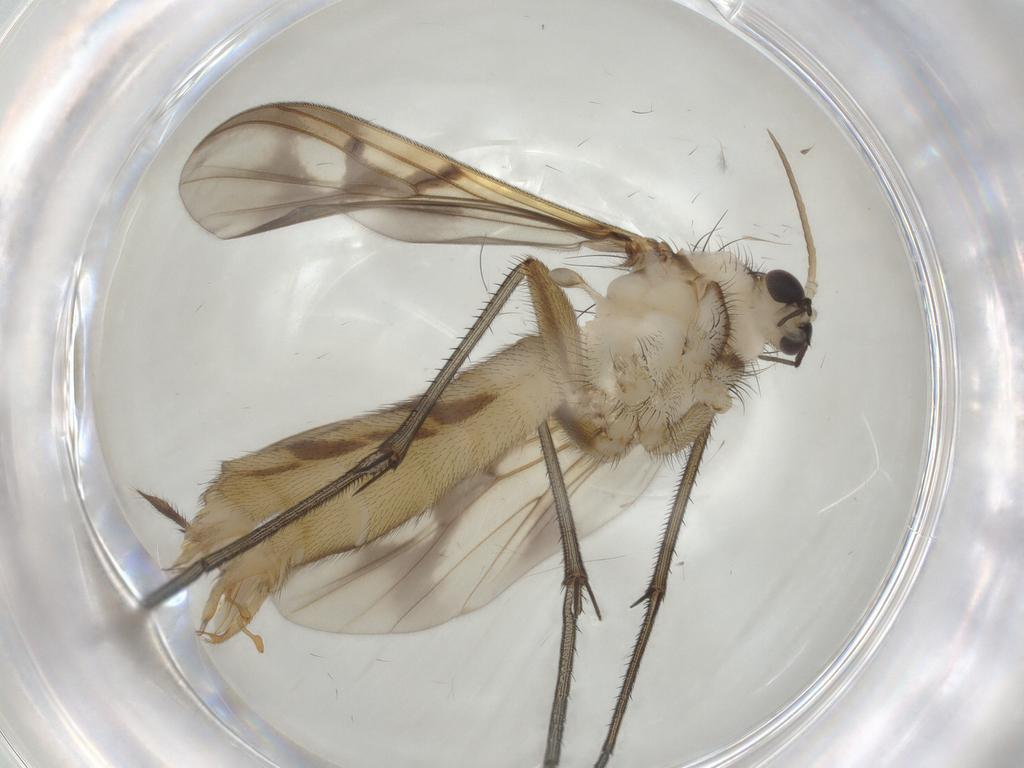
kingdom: Animalia
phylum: Arthropoda
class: Insecta
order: Diptera
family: Mycetophilidae
